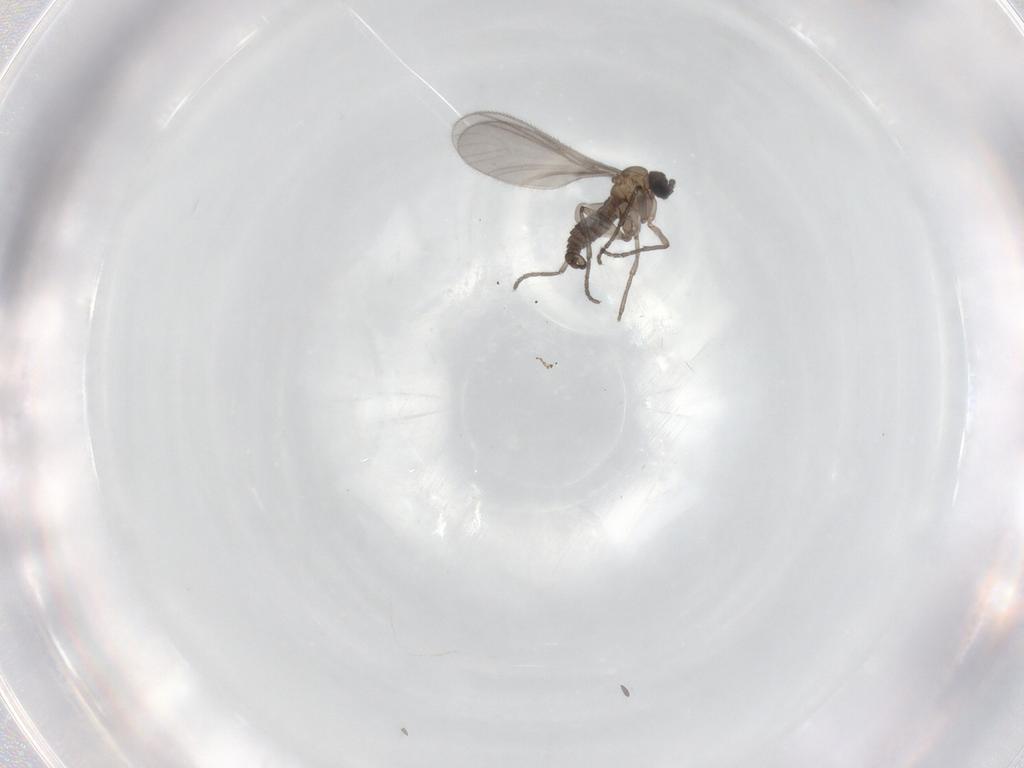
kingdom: Animalia
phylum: Arthropoda
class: Insecta
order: Diptera
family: Sciaridae
